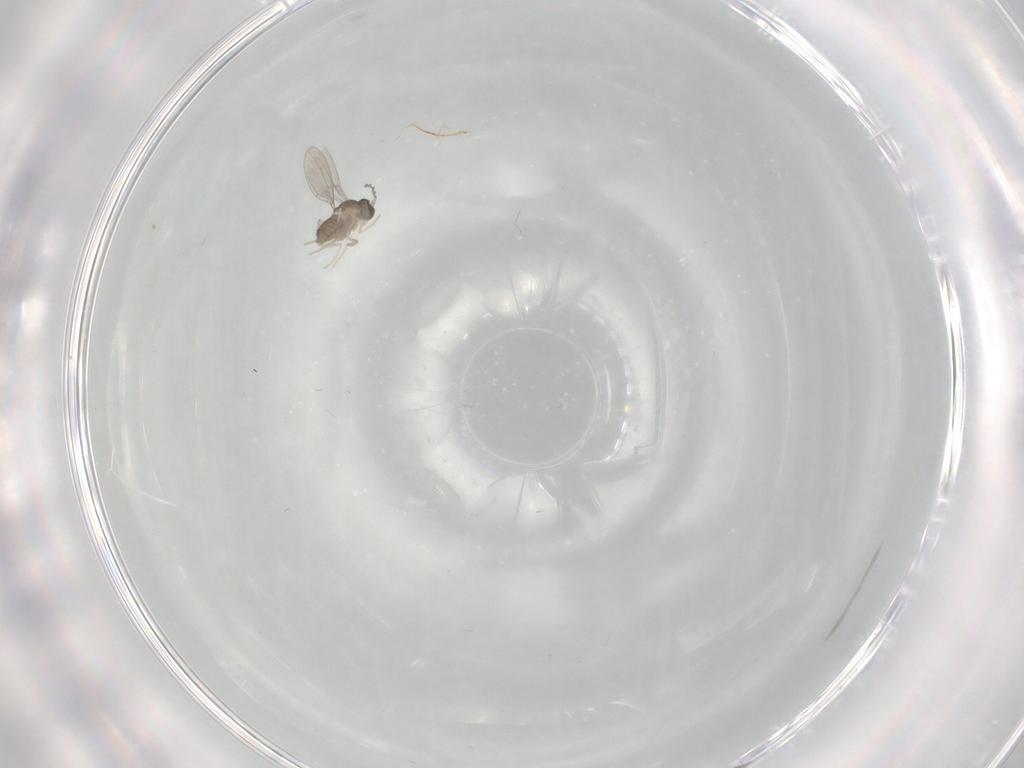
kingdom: Animalia
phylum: Arthropoda
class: Insecta
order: Diptera
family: Cecidomyiidae
